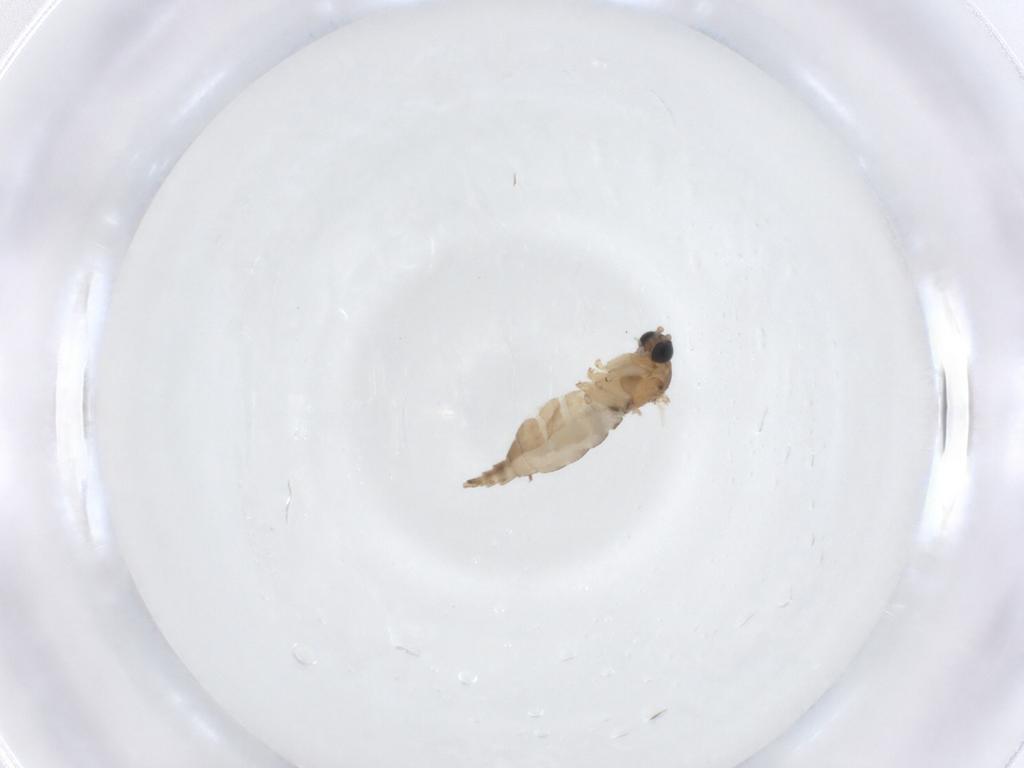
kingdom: Animalia
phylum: Arthropoda
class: Insecta
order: Diptera
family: Sciaridae
